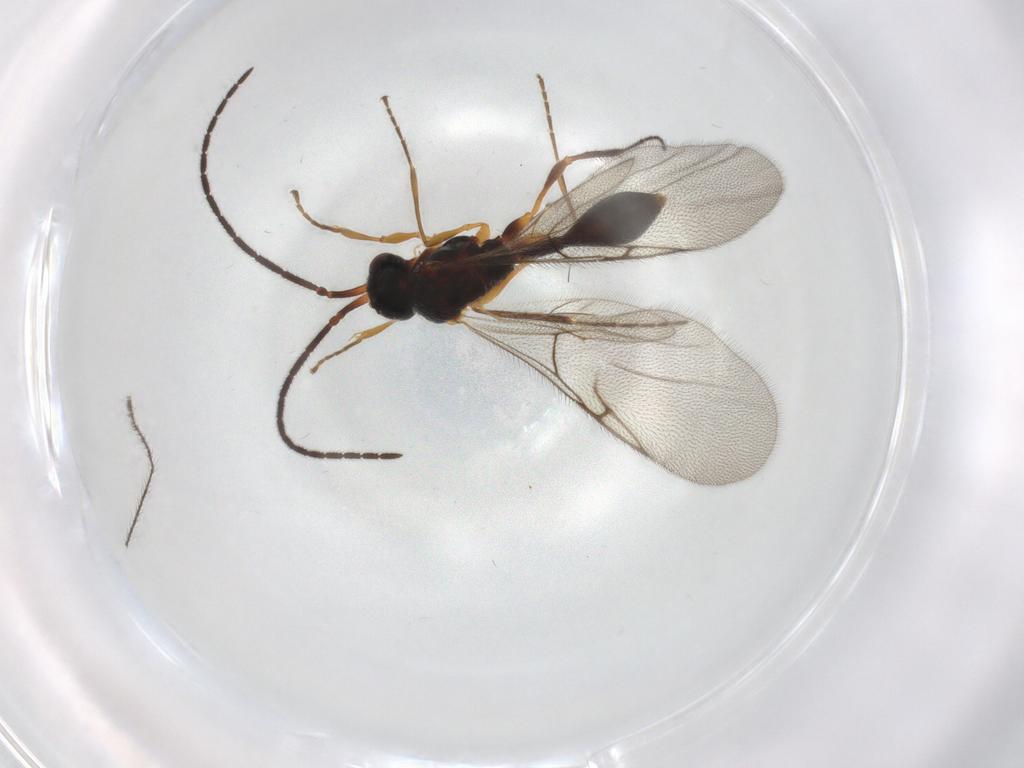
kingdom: Animalia
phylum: Arthropoda
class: Insecta
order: Hymenoptera
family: Diapriidae
